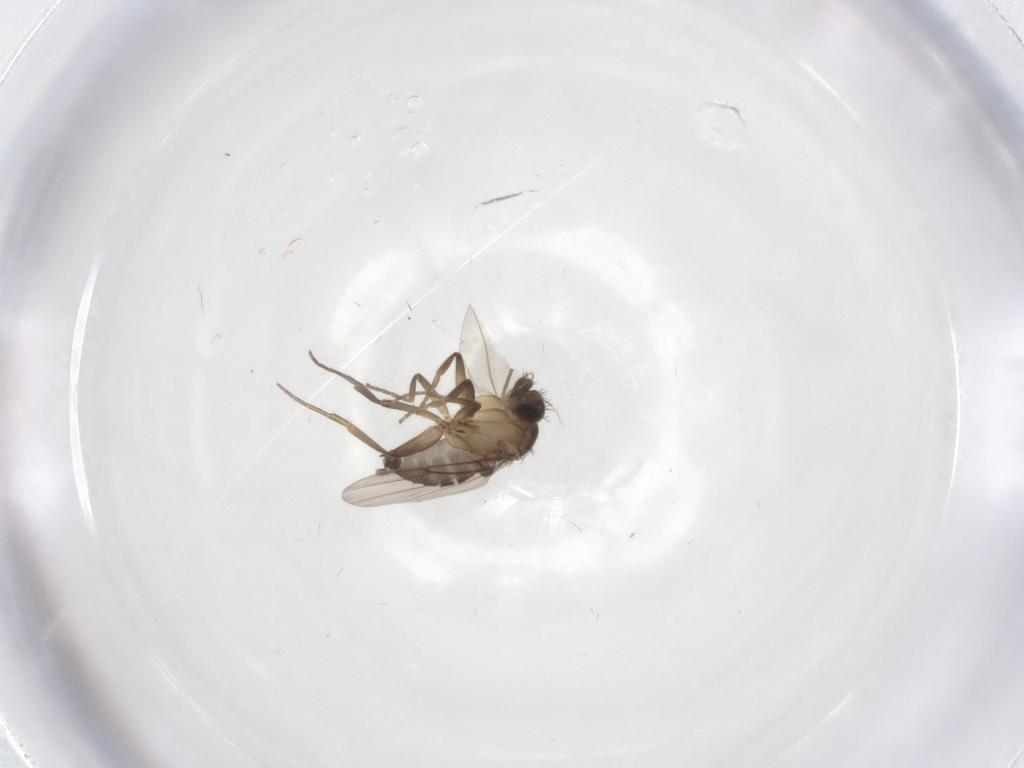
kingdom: Animalia
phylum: Arthropoda
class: Insecta
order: Diptera
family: Phoridae
